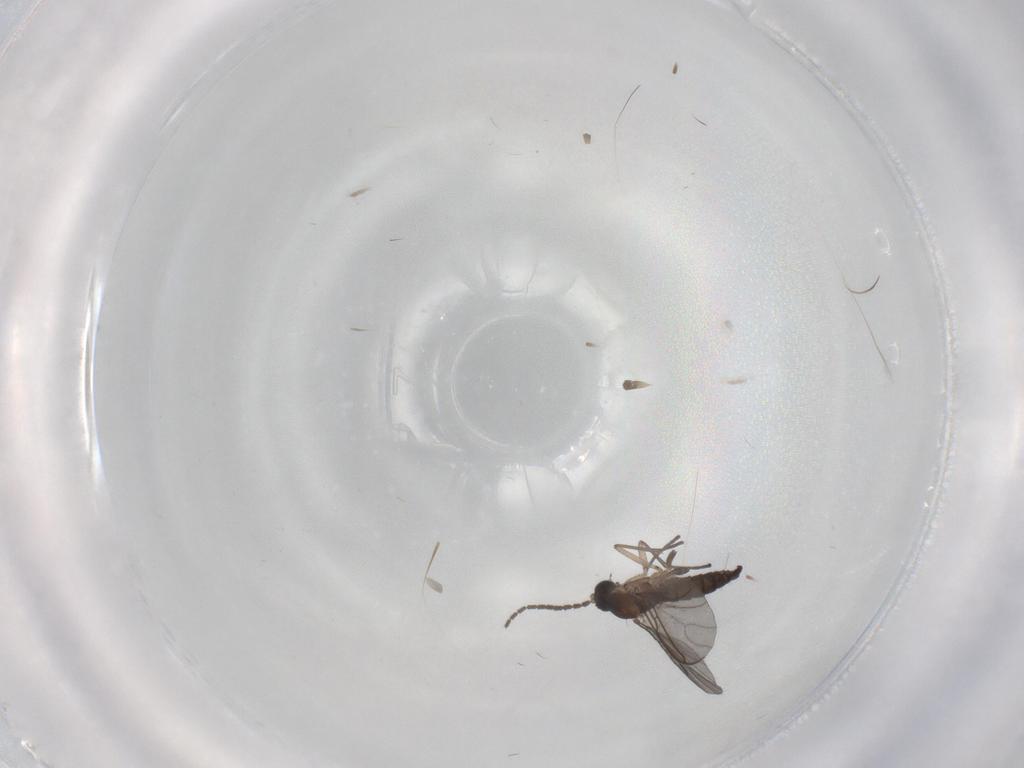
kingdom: Animalia
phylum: Arthropoda
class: Insecta
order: Diptera
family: Sciaridae
